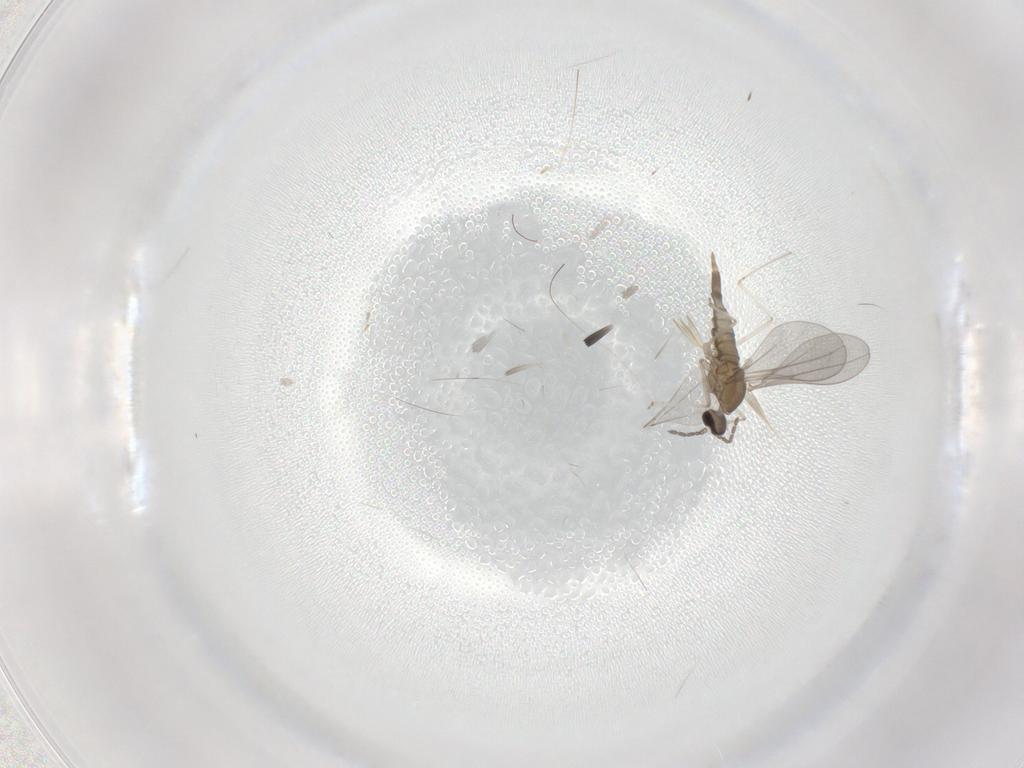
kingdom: Animalia
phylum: Arthropoda
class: Insecta
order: Diptera
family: Cecidomyiidae
